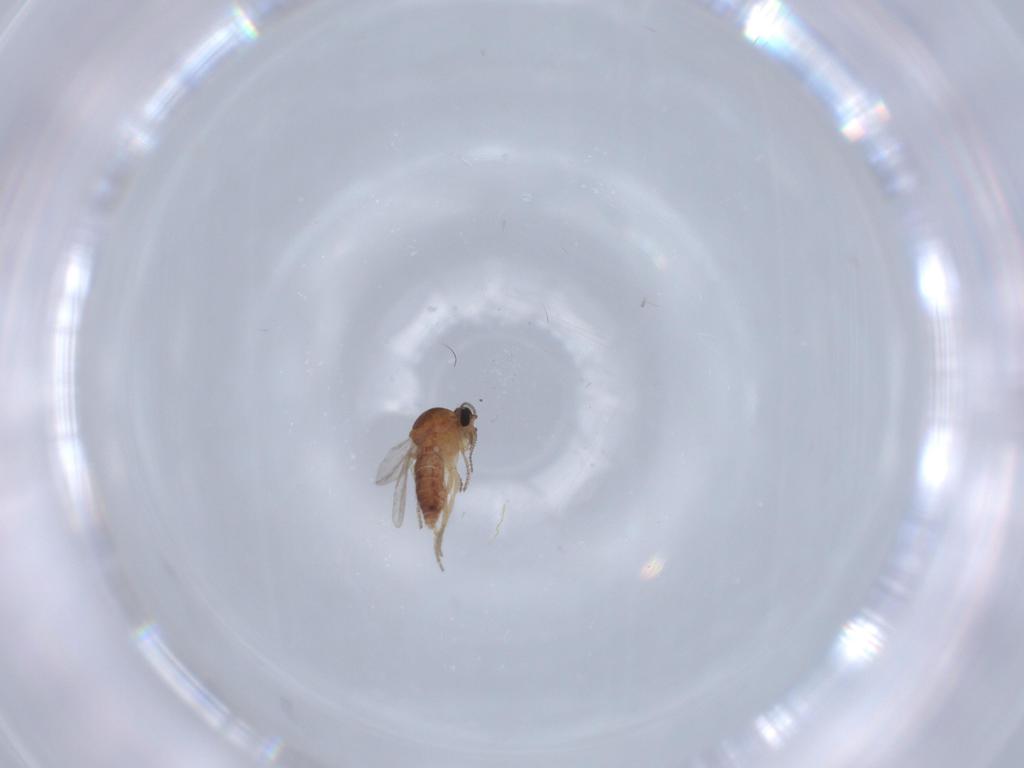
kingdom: Animalia
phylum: Arthropoda
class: Insecta
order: Diptera
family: Ceratopogonidae
